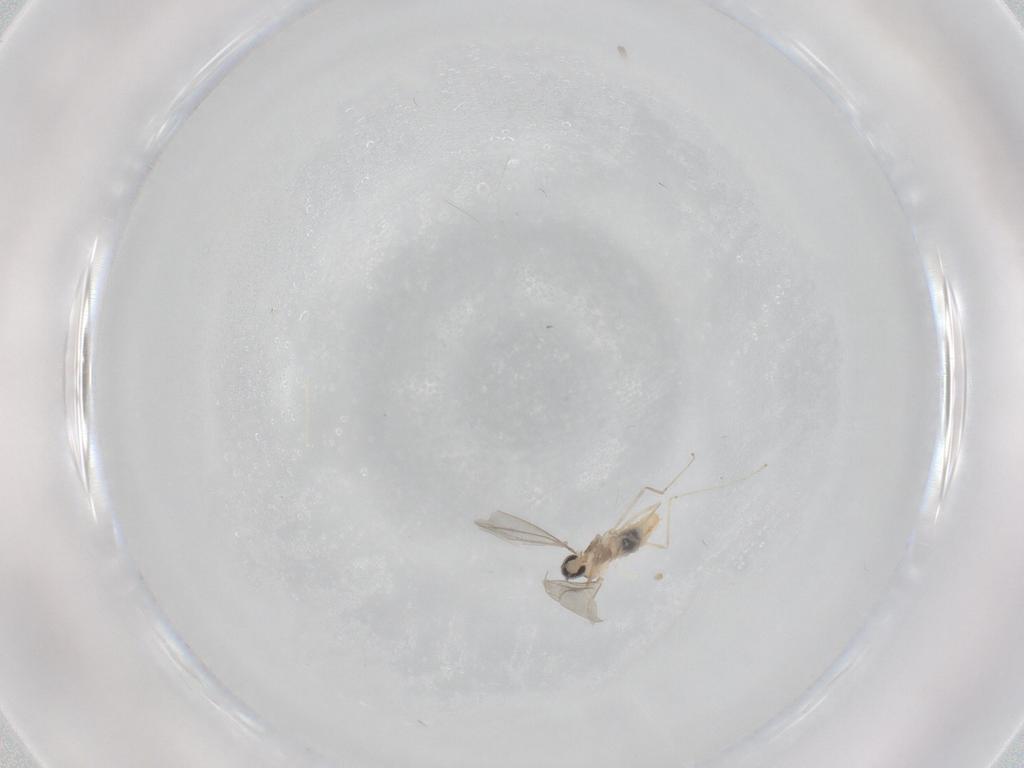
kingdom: Animalia
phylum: Arthropoda
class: Insecta
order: Diptera
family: Cecidomyiidae
